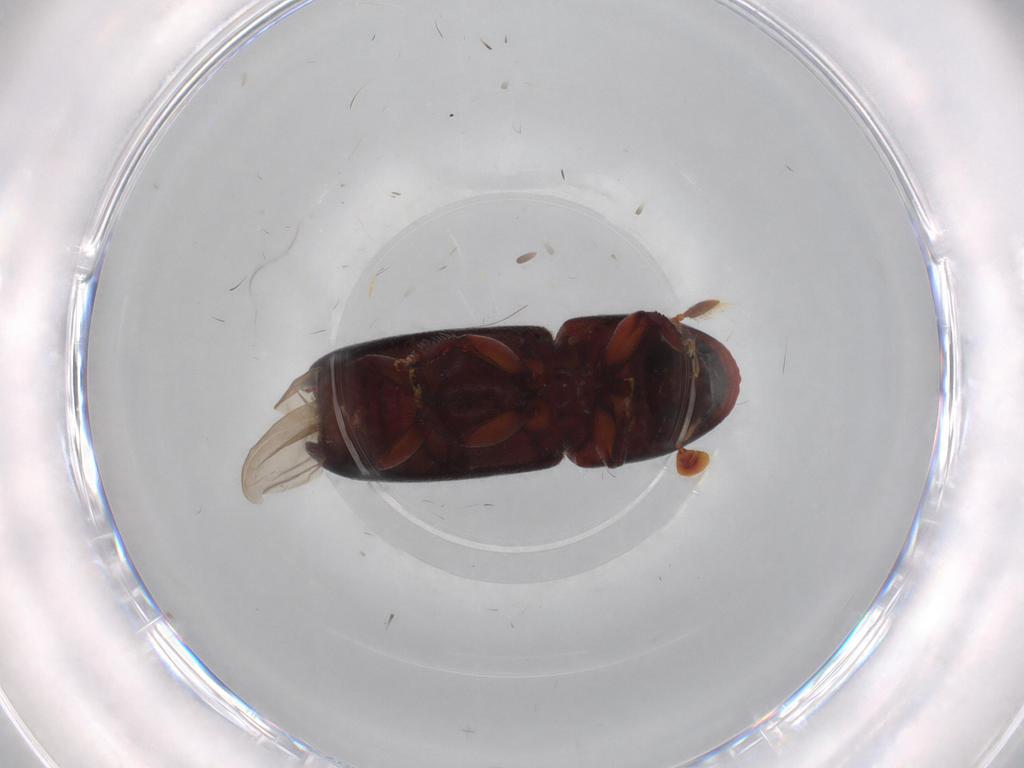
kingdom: Animalia
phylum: Arthropoda
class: Insecta
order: Coleoptera
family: Curculionidae
